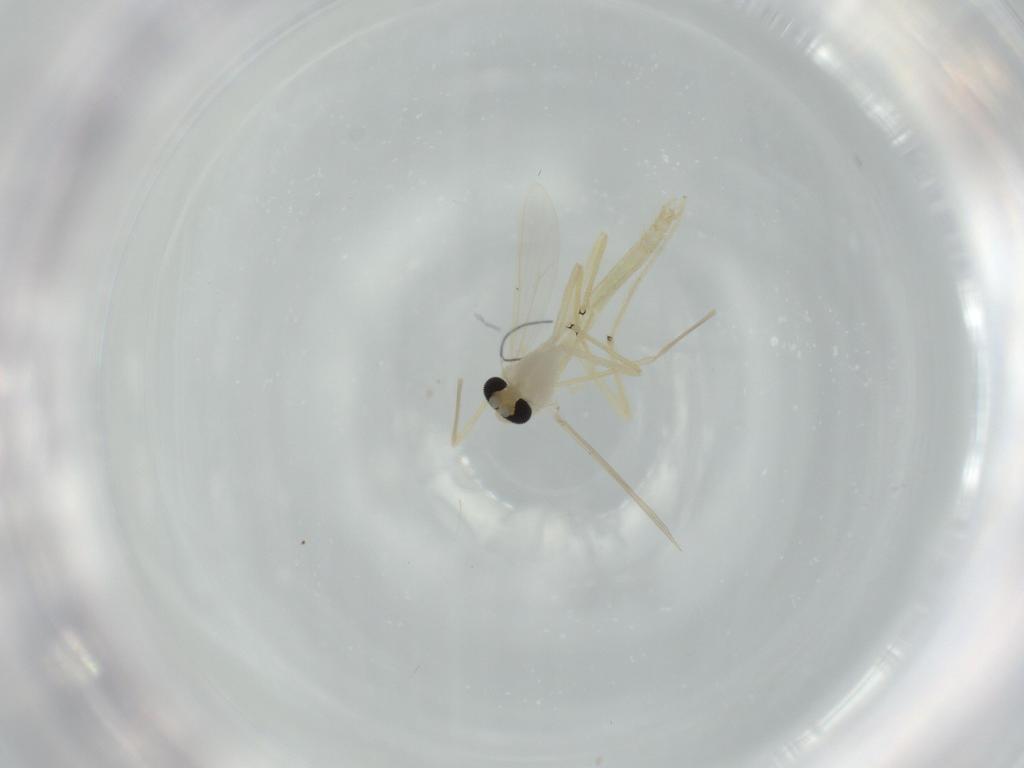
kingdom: Animalia
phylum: Arthropoda
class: Insecta
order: Diptera
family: Chironomidae
